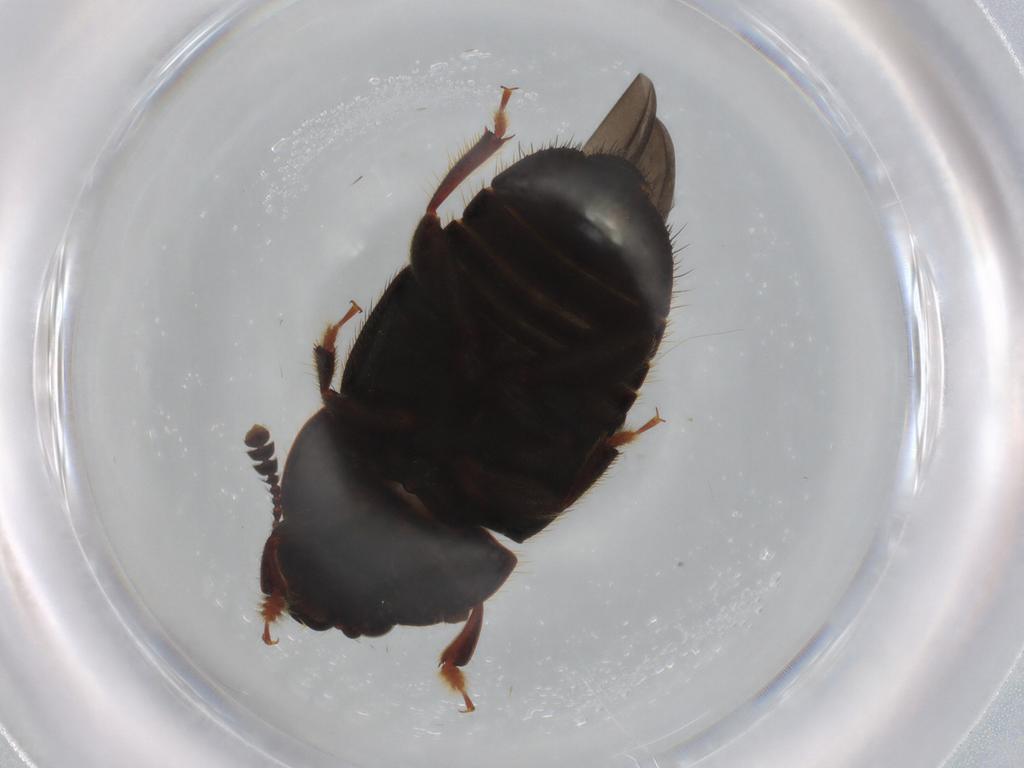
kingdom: Animalia
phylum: Arthropoda
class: Insecta
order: Coleoptera
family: Nitidulidae
